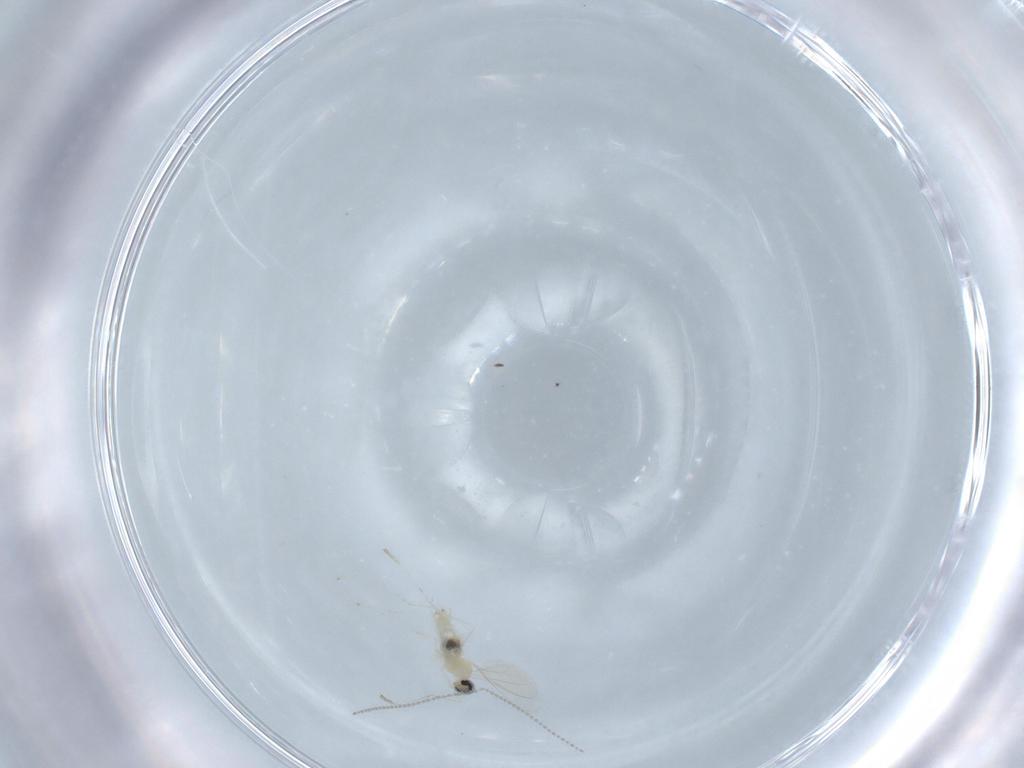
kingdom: Animalia
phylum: Arthropoda
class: Insecta
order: Diptera
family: Cecidomyiidae
